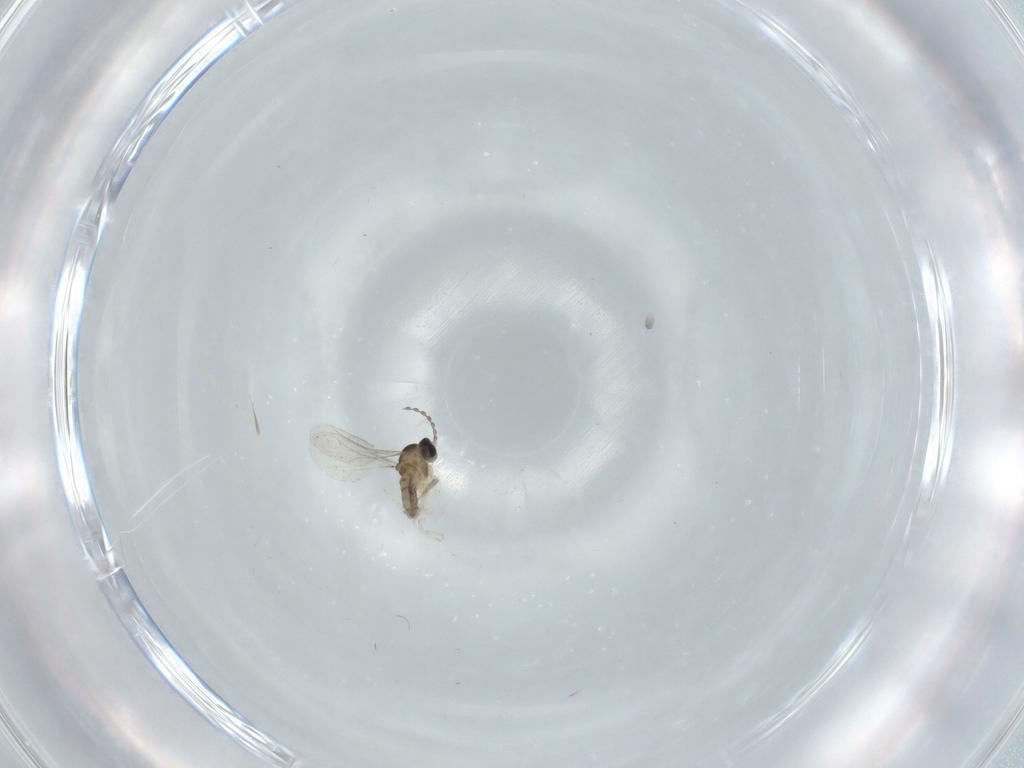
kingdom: Animalia
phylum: Arthropoda
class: Insecta
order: Diptera
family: Cecidomyiidae
